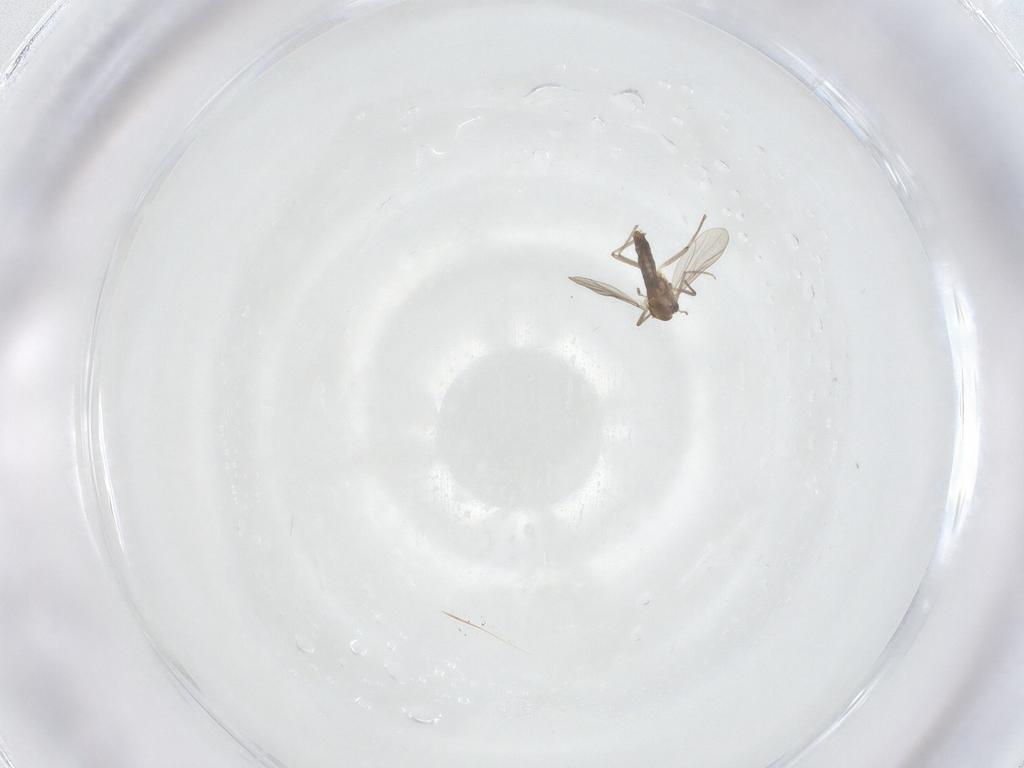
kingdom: Animalia
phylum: Arthropoda
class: Insecta
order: Diptera
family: Chironomidae
